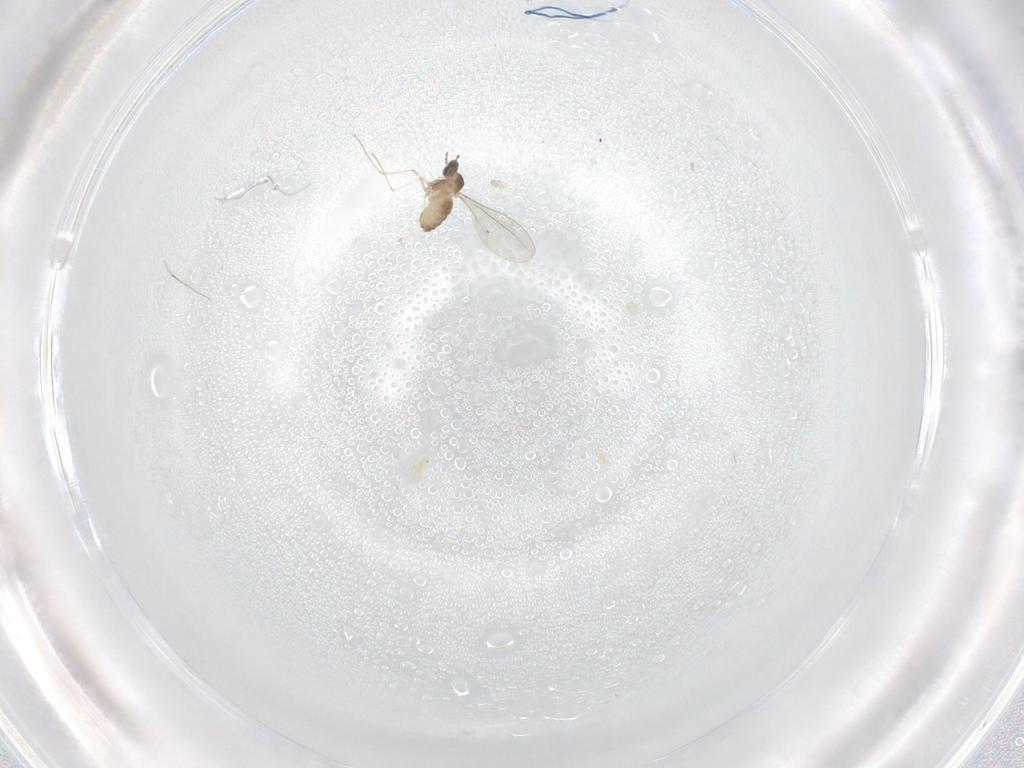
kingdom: Animalia
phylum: Arthropoda
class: Insecta
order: Diptera
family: Cecidomyiidae
